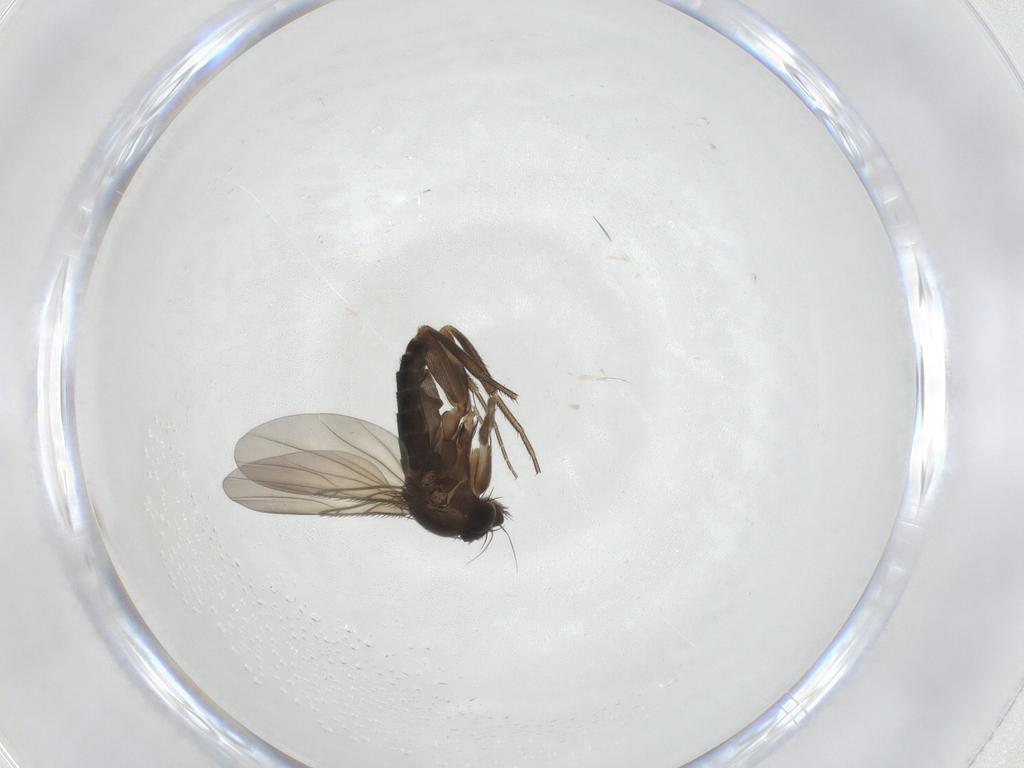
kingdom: Animalia
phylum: Arthropoda
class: Insecta
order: Diptera
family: Phoridae
